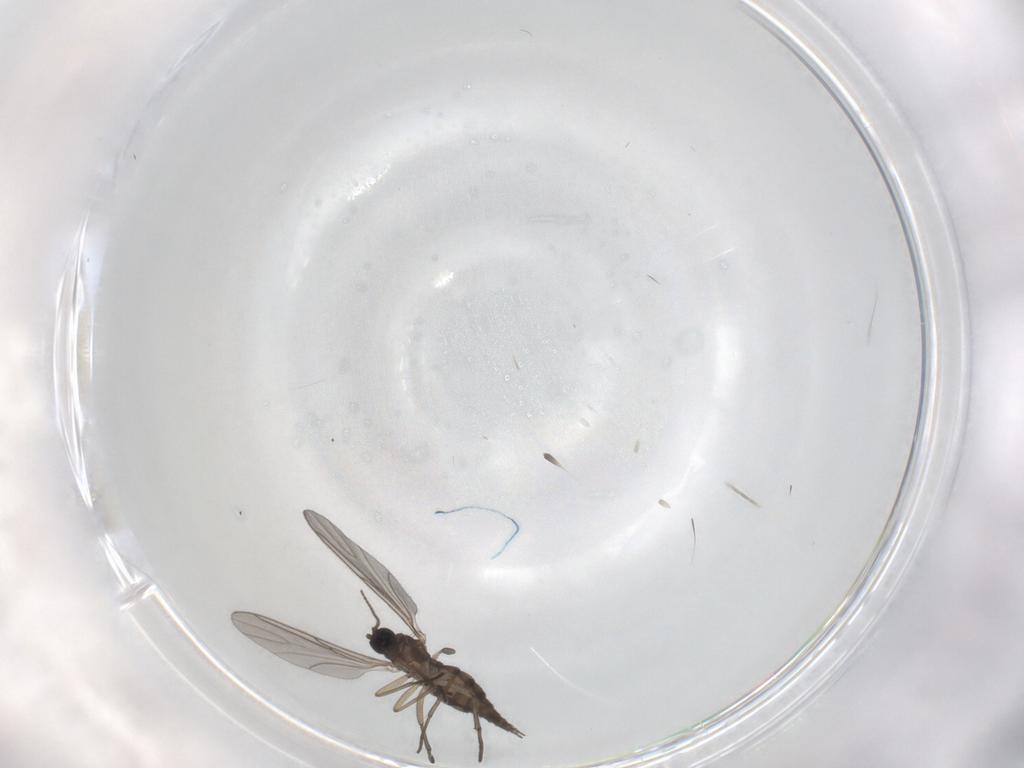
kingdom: Animalia
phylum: Arthropoda
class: Insecta
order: Diptera
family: Sciaridae
